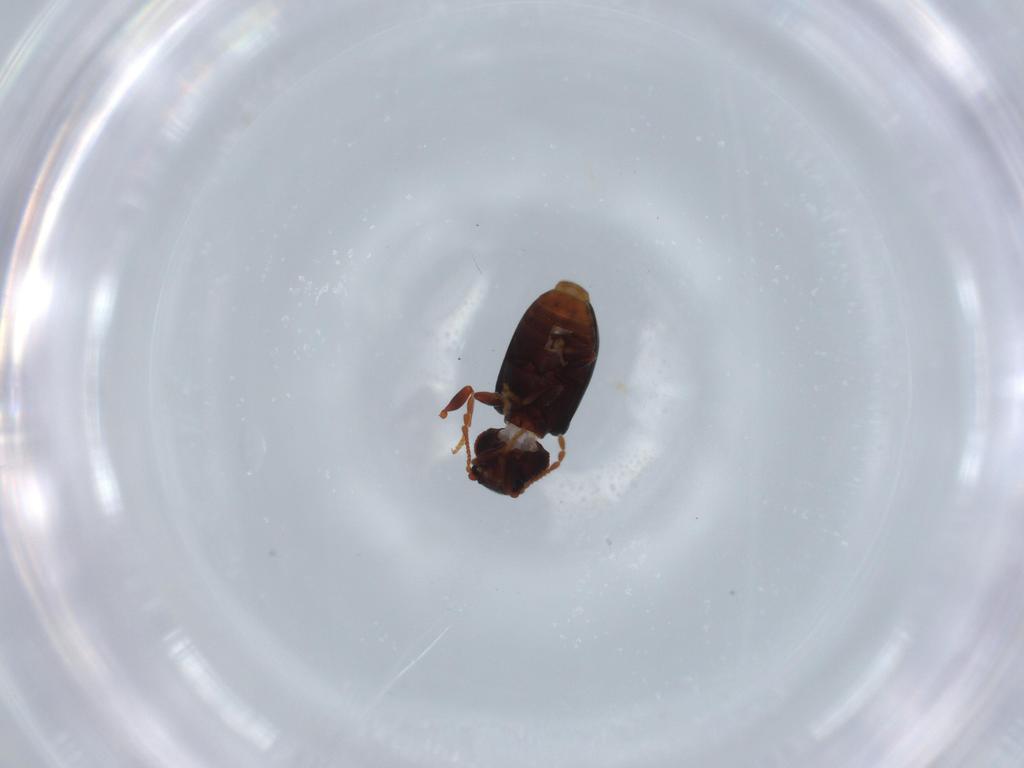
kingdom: Animalia
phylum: Arthropoda
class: Insecta
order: Coleoptera
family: Ptinidae
